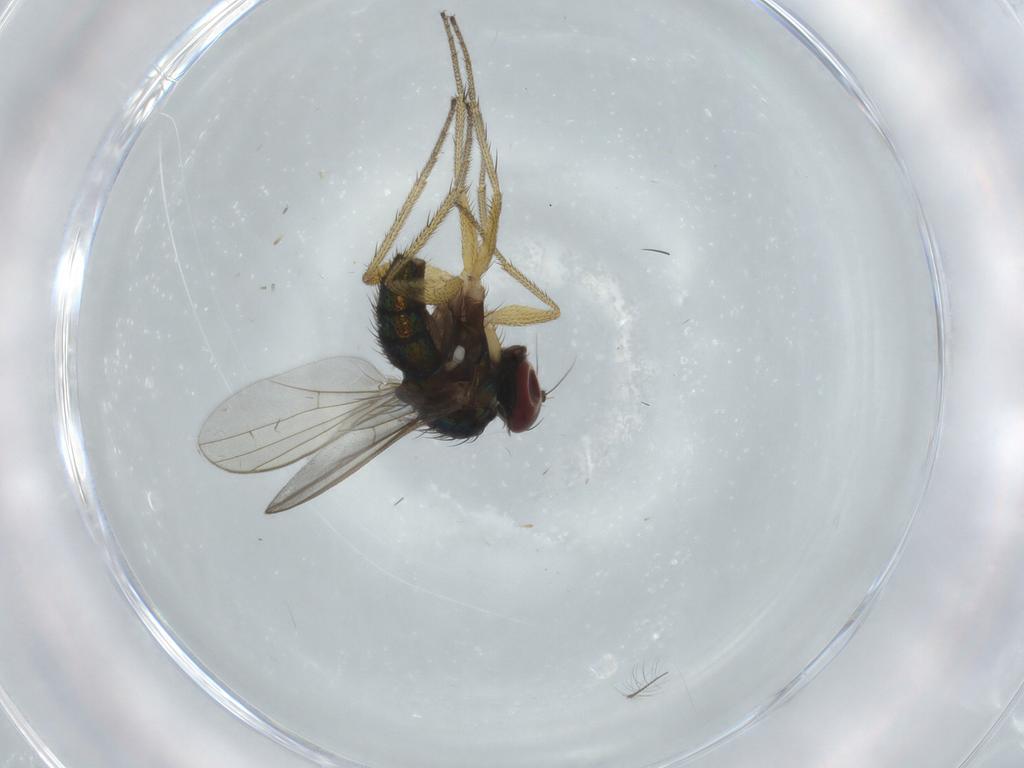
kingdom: Animalia
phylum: Arthropoda
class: Insecta
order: Diptera
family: Dolichopodidae
